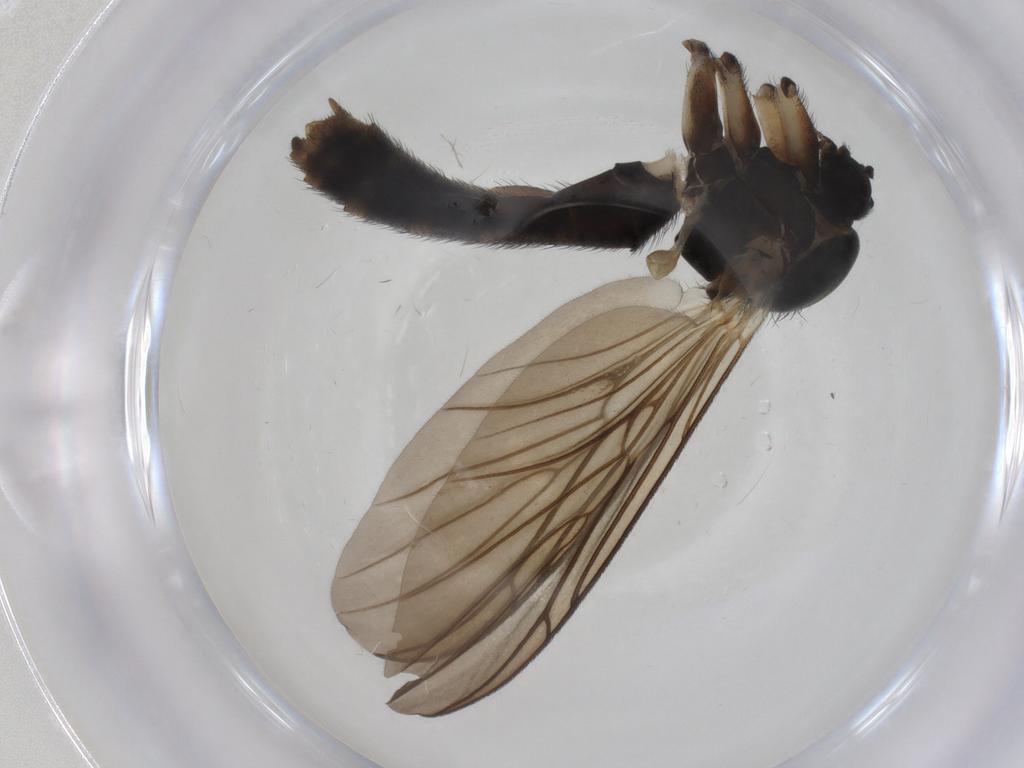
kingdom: Animalia
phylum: Arthropoda
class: Insecta
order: Diptera
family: Keroplatidae
